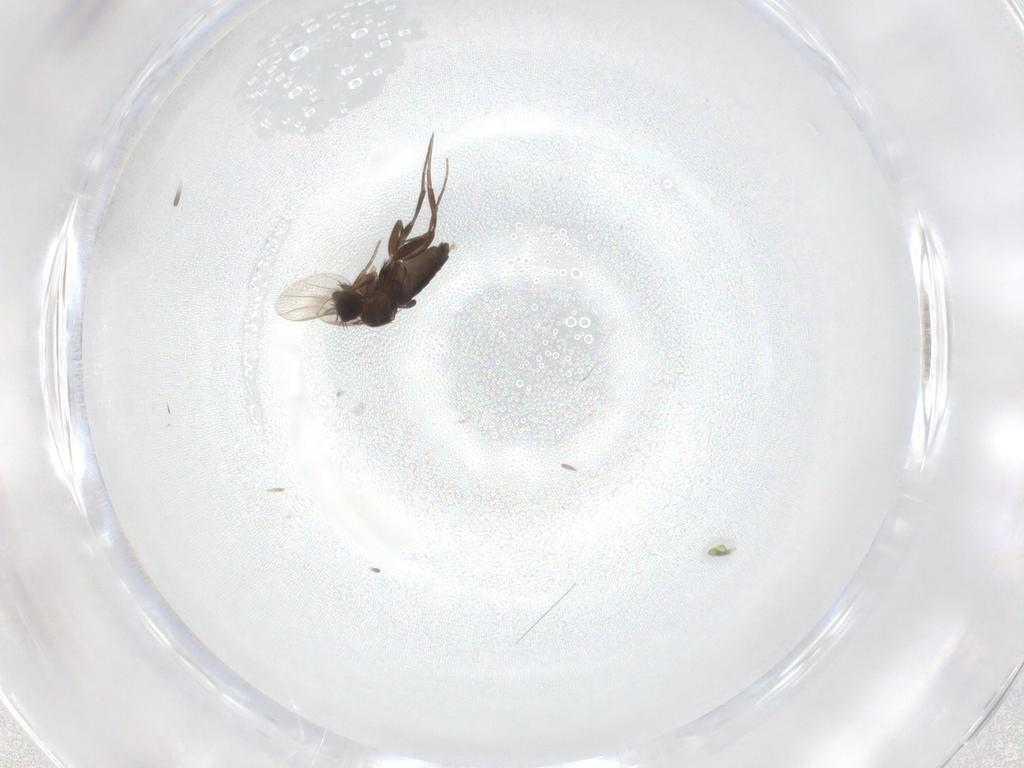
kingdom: Animalia
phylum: Arthropoda
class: Insecta
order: Diptera
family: Phoridae
